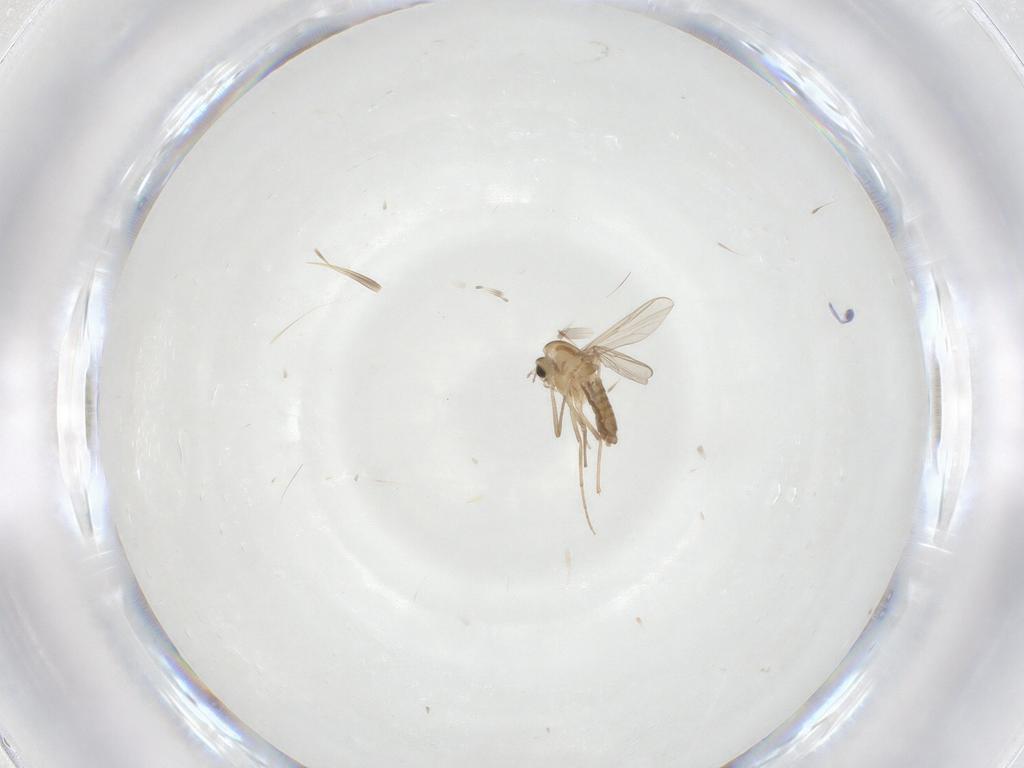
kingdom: Animalia
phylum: Arthropoda
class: Insecta
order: Diptera
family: Chironomidae
